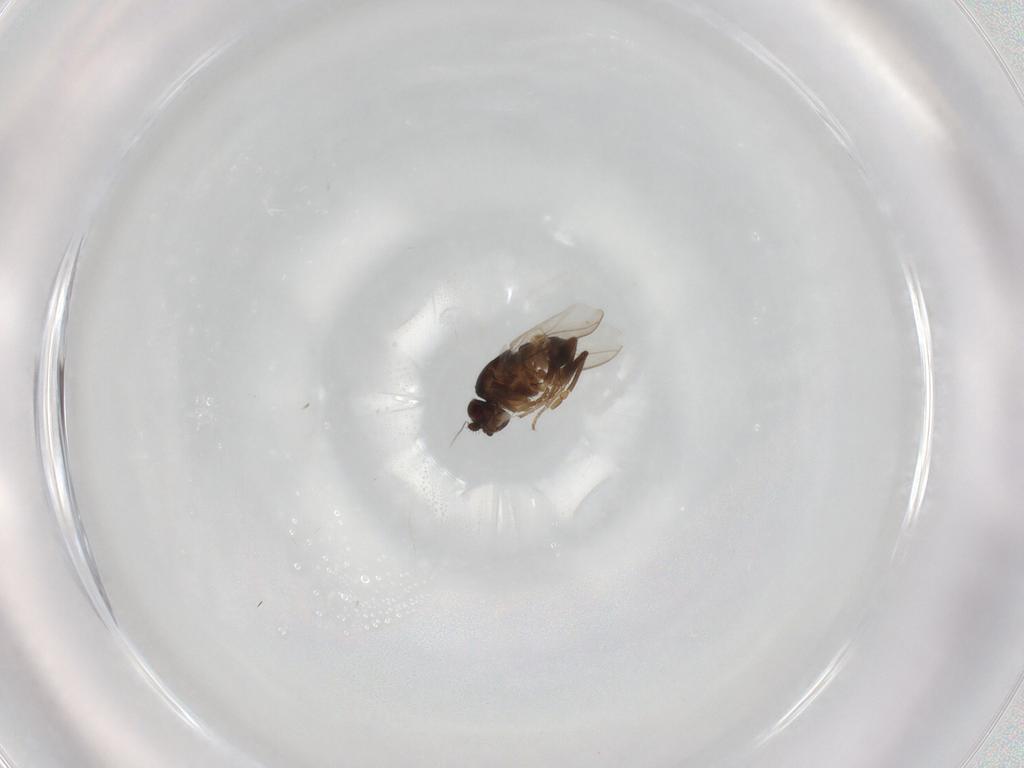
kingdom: Animalia
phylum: Arthropoda
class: Insecta
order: Diptera
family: Sphaeroceridae
